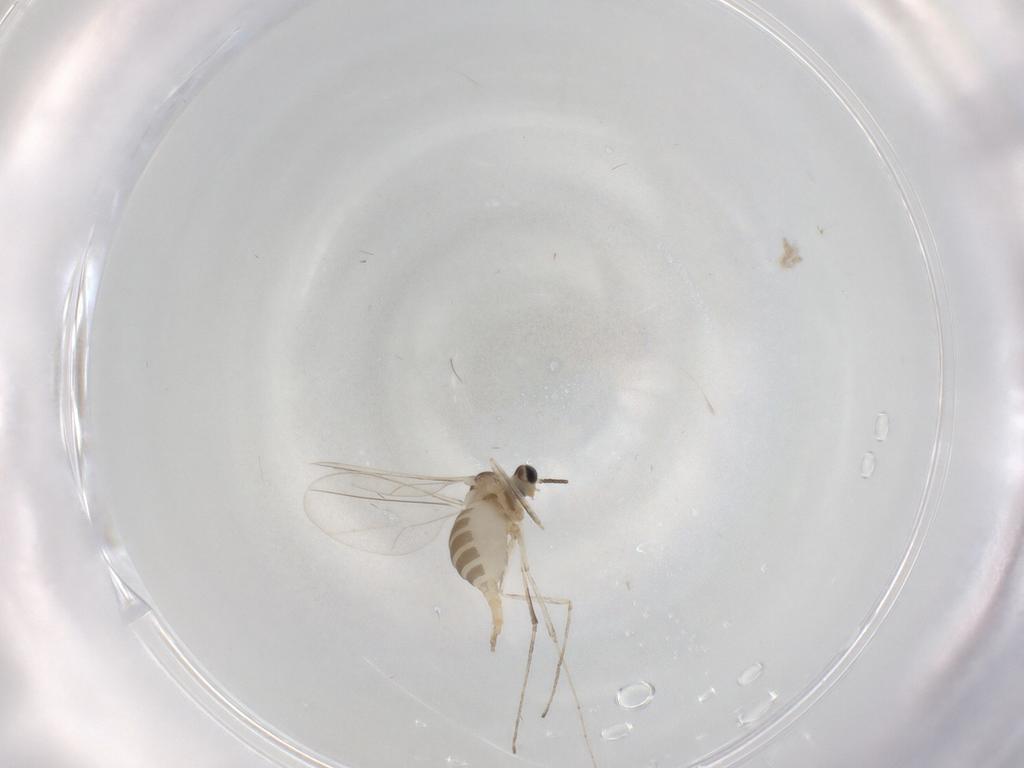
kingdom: Animalia
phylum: Arthropoda
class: Insecta
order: Diptera
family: Cecidomyiidae
